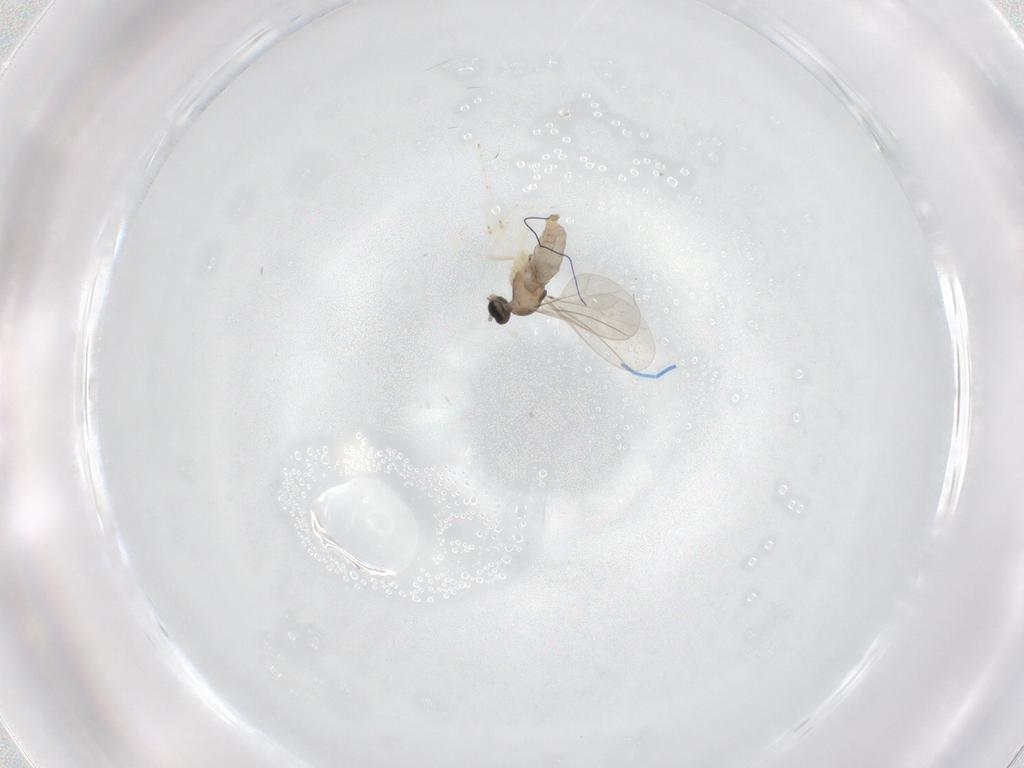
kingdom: Animalia
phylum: Arthropoda
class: Insecta
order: Diptera
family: Cecidomyiidae
